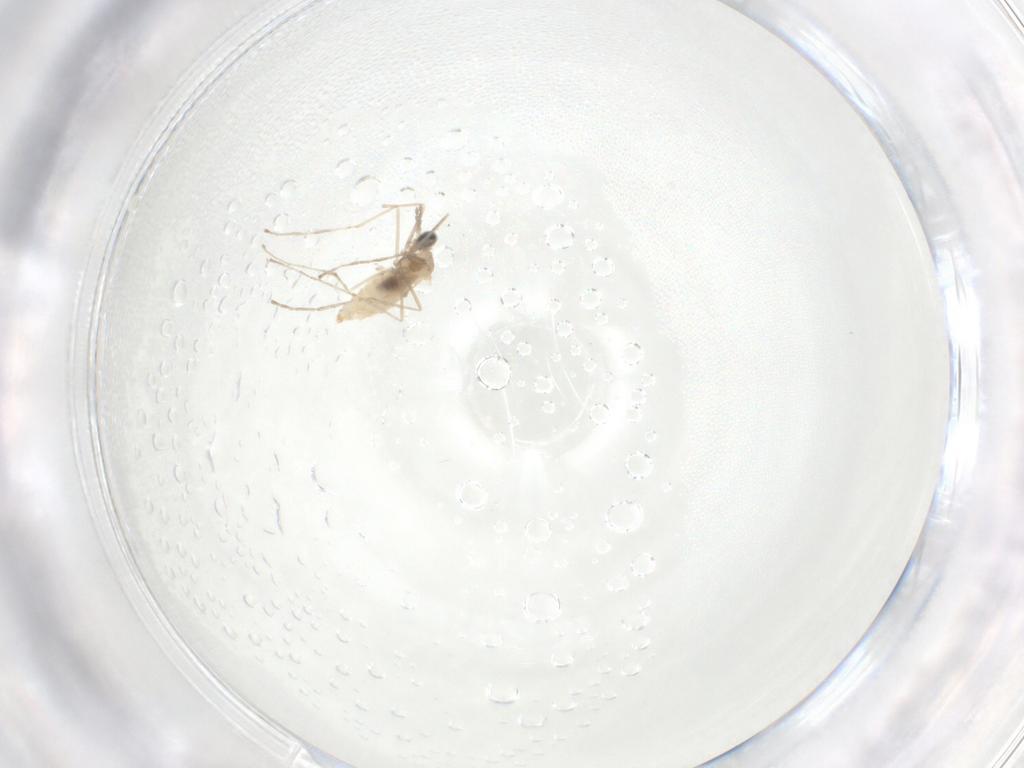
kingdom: Animalia
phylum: Arthropoda
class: Insecta
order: Diptera
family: Cecidomyiidae
